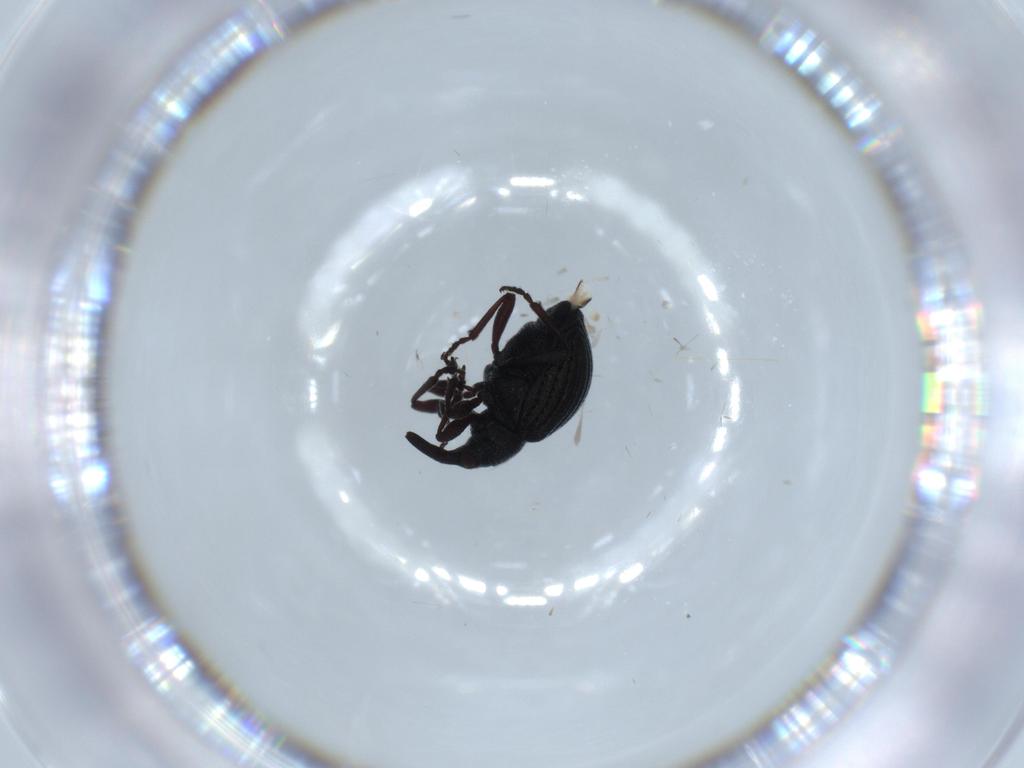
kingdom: Animalia
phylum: Arthropoda
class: Insecta
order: Coleoptera
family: Brentidae
